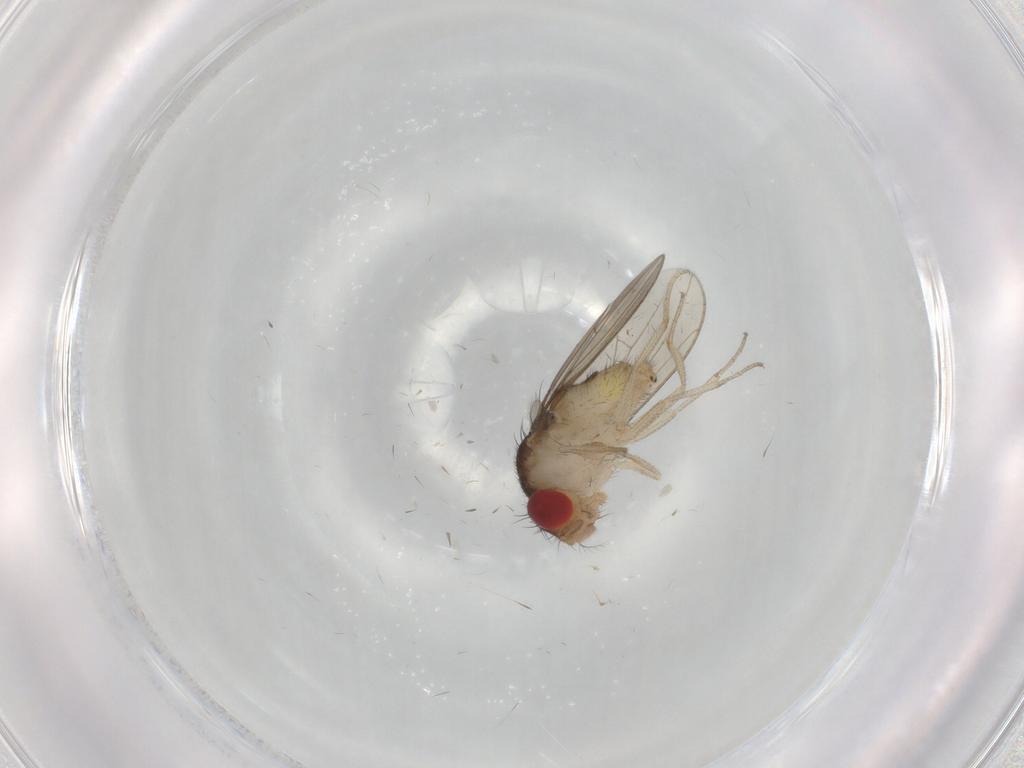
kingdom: Animalia
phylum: Arthropoda
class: Insecta
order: Diptera
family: Drosophilidae
